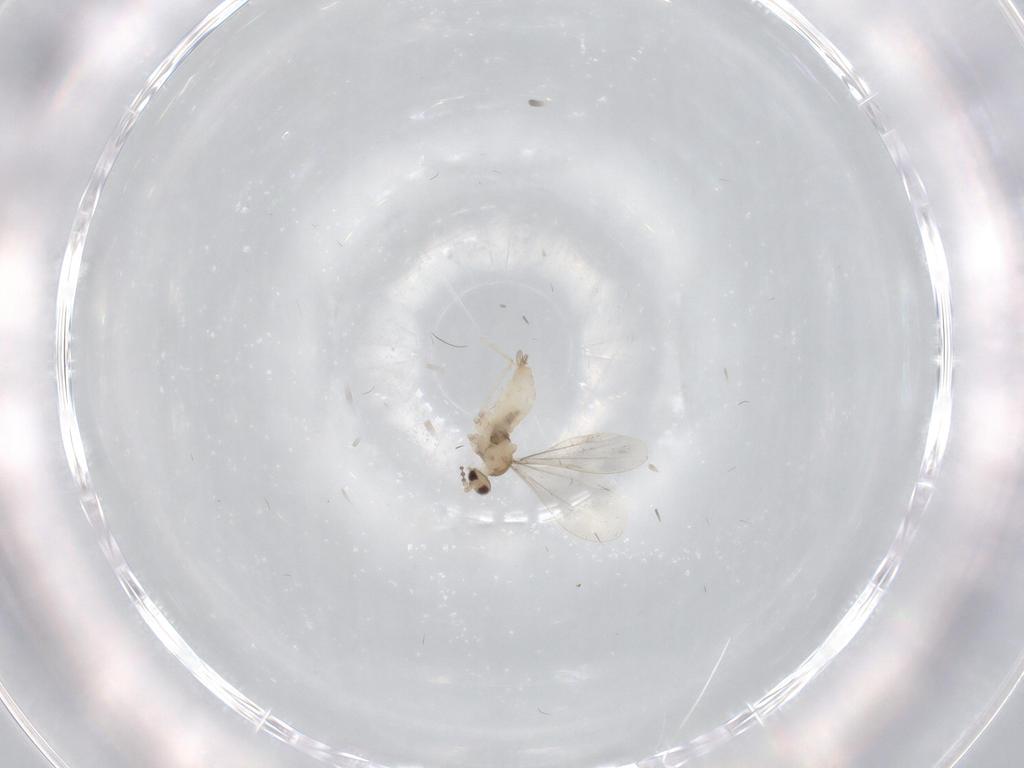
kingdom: Animalia
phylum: Arthropoda
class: Insecta
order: Diptera
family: Cecidomyiidae
